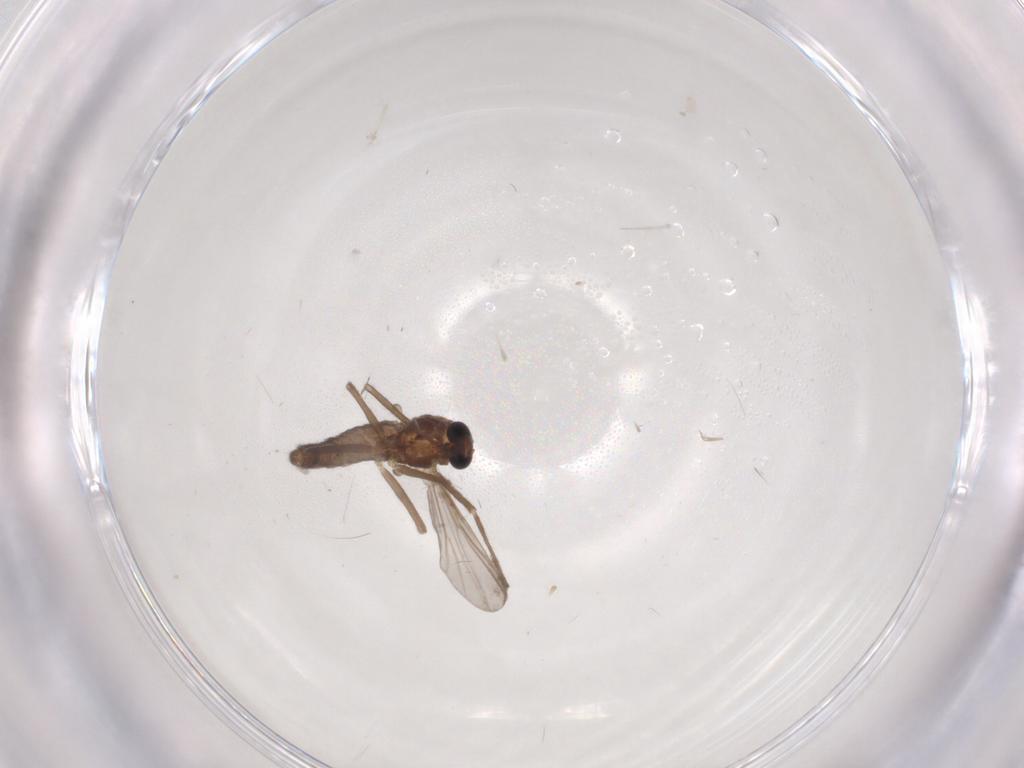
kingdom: Animalia
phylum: Arthropoda
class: Insecta
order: Diptera
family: Chironomidae
